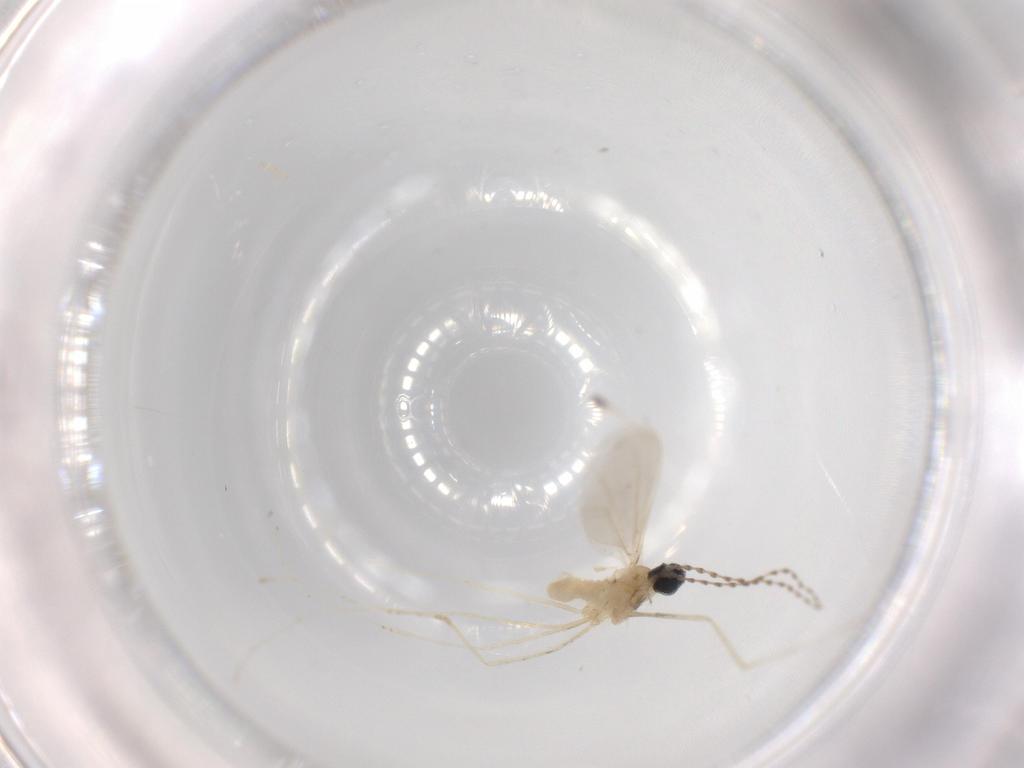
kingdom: Animalia
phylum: Arthropoda
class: Insecta
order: Diptera
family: Cecidomyiidae
